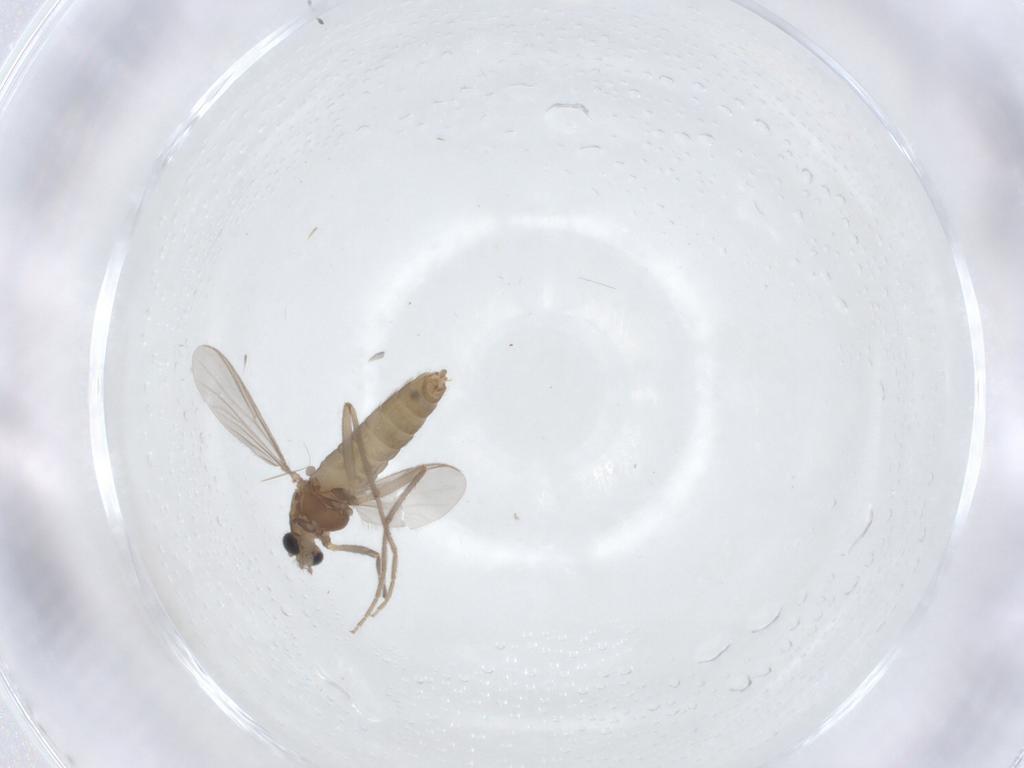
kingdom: Animalia
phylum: Arthropoda
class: Insecta
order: Diptera
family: Chironomidae
